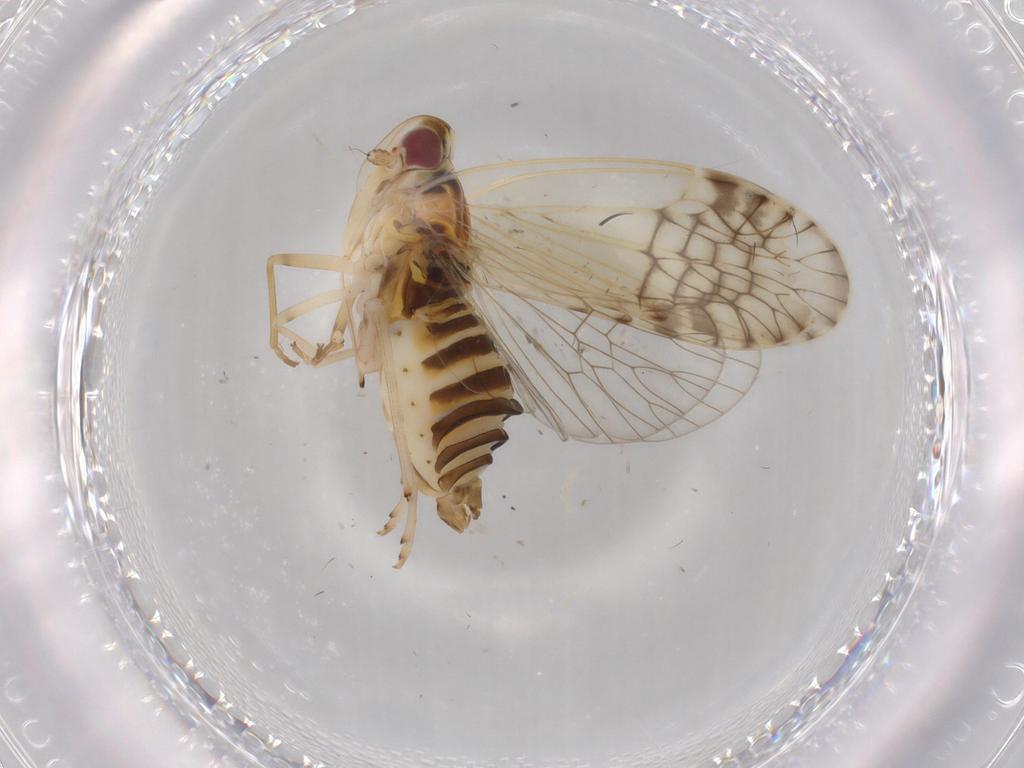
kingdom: Animalia
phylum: Arthropoda
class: Insecta
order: Hemiptera
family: Kinnaridae
